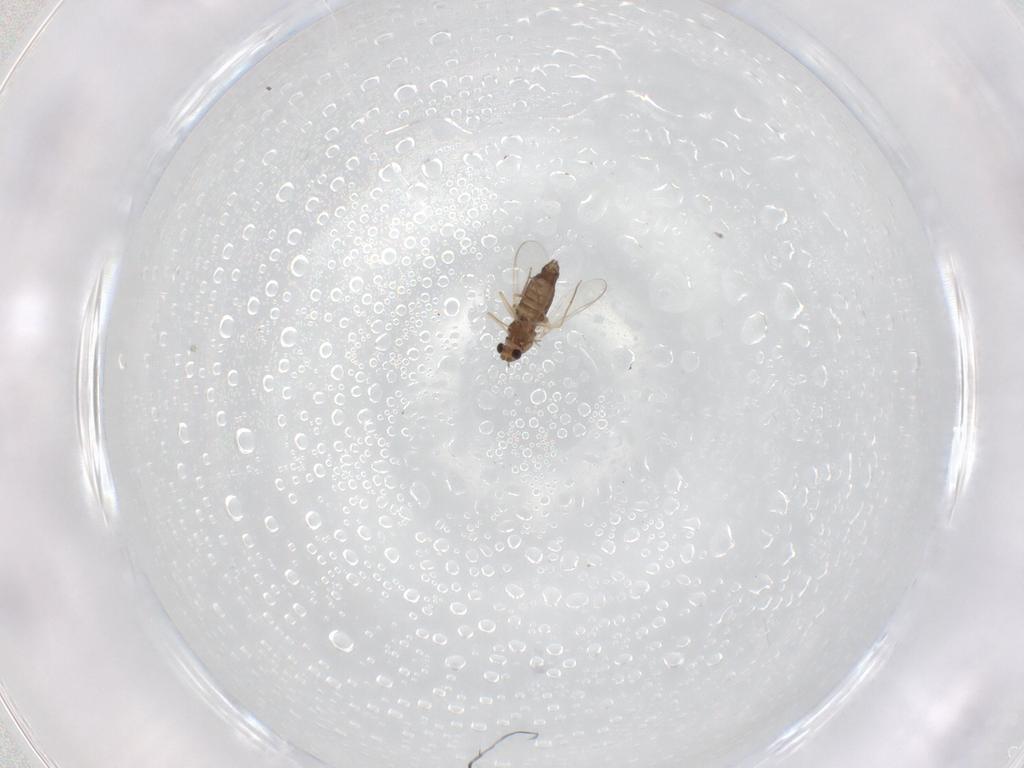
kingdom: Animalia
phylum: Arthropoda
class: Insecta
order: Diptera
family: Chironomidae
